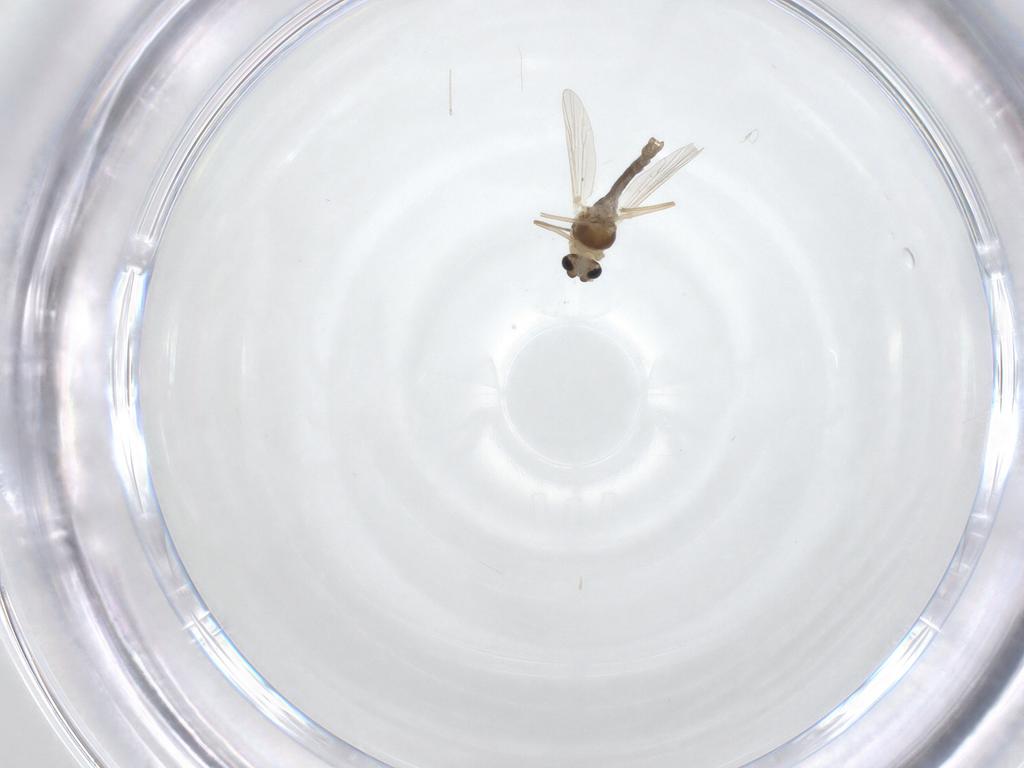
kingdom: Animalia
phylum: Arthropoda
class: Insecta
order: Diptera
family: Chironomidae
